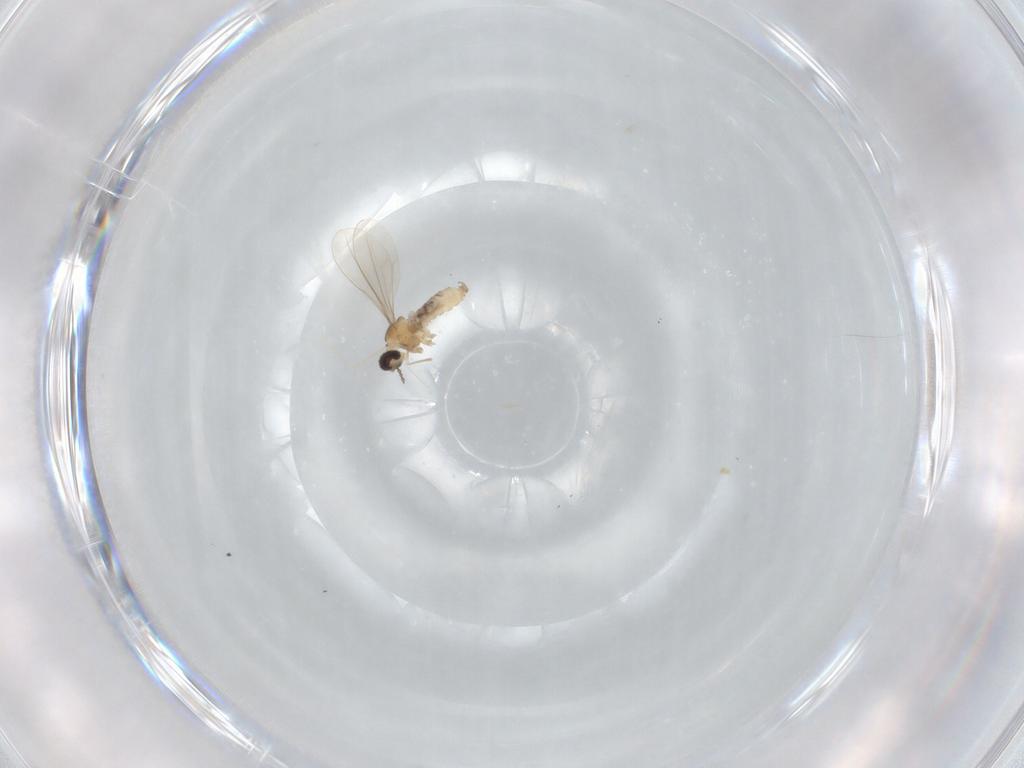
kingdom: Animalia
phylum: Arthropoda
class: Insecta
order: Diptera
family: Cecidomyiidae
